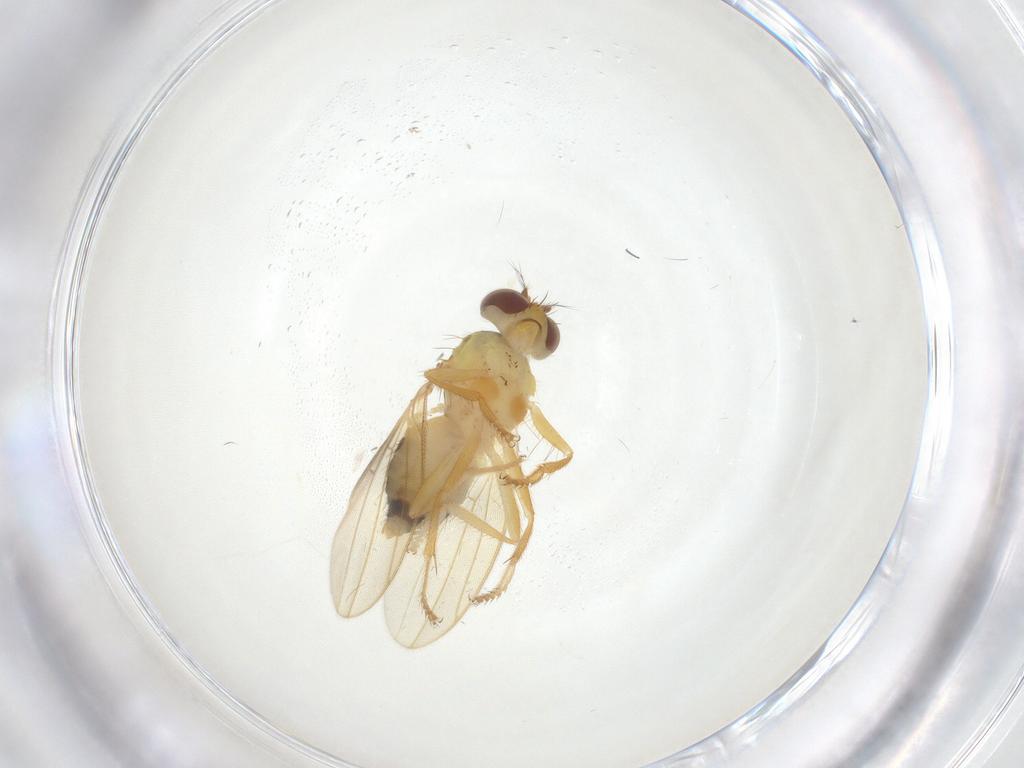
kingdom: Animalia
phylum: Arthropoda
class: Insecta
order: Diptera
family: Periscelididae
